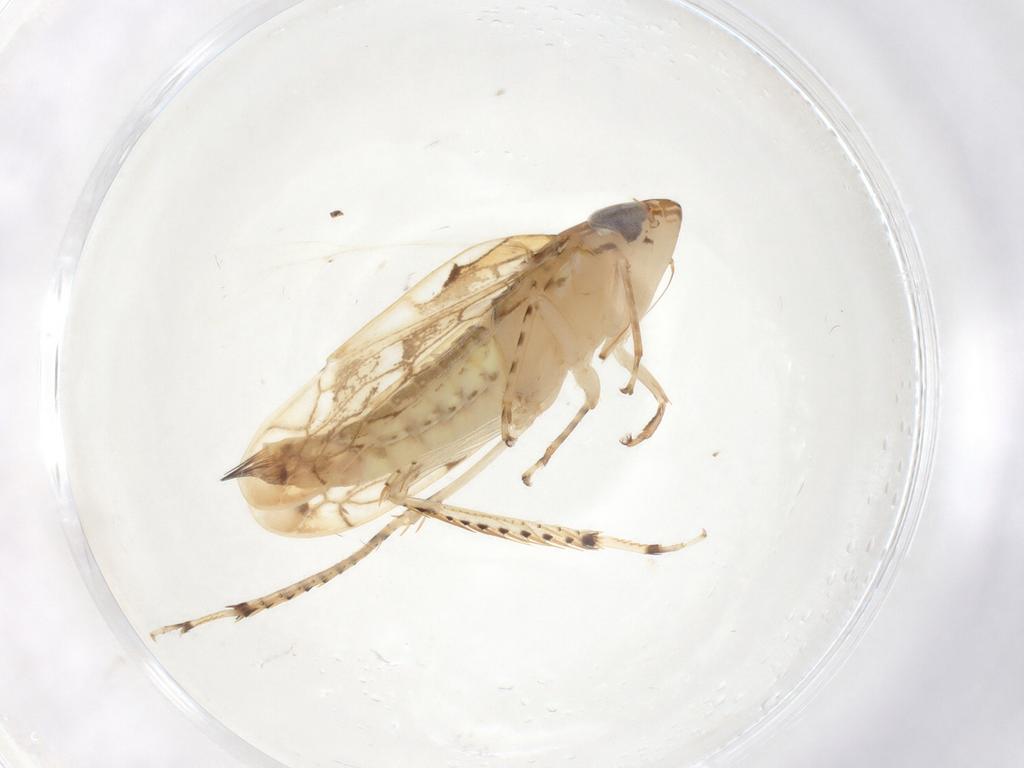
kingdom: Animalia
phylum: Arthropoda
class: Insecta
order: Hemiptera
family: Cicadellidae
